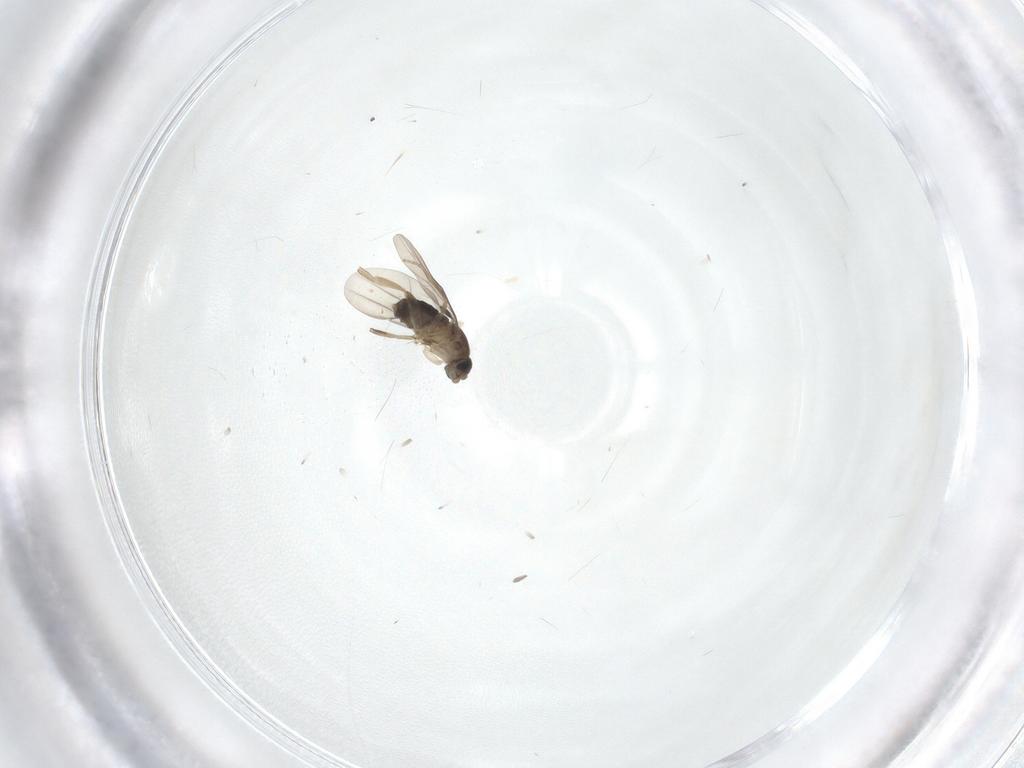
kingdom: Animalia
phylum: Arthropoda
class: Insecta
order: Diptera
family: Phoridae
